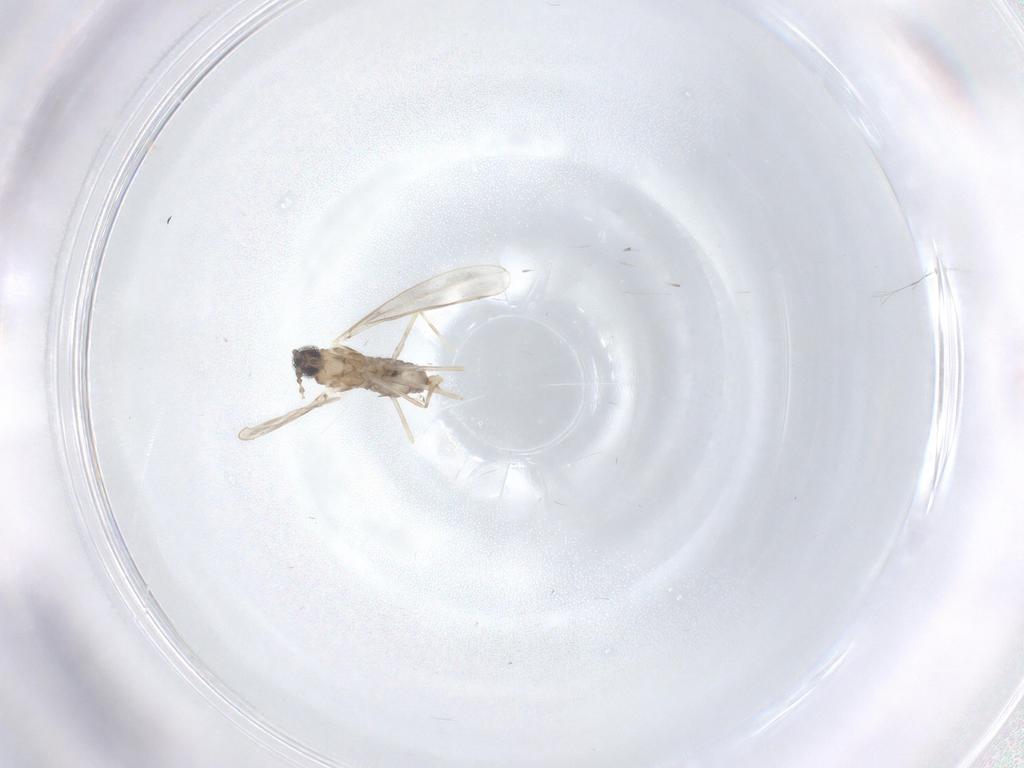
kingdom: Animalia
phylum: Arthropoda
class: Insecta
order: Diptera
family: Cecidomyiidae
